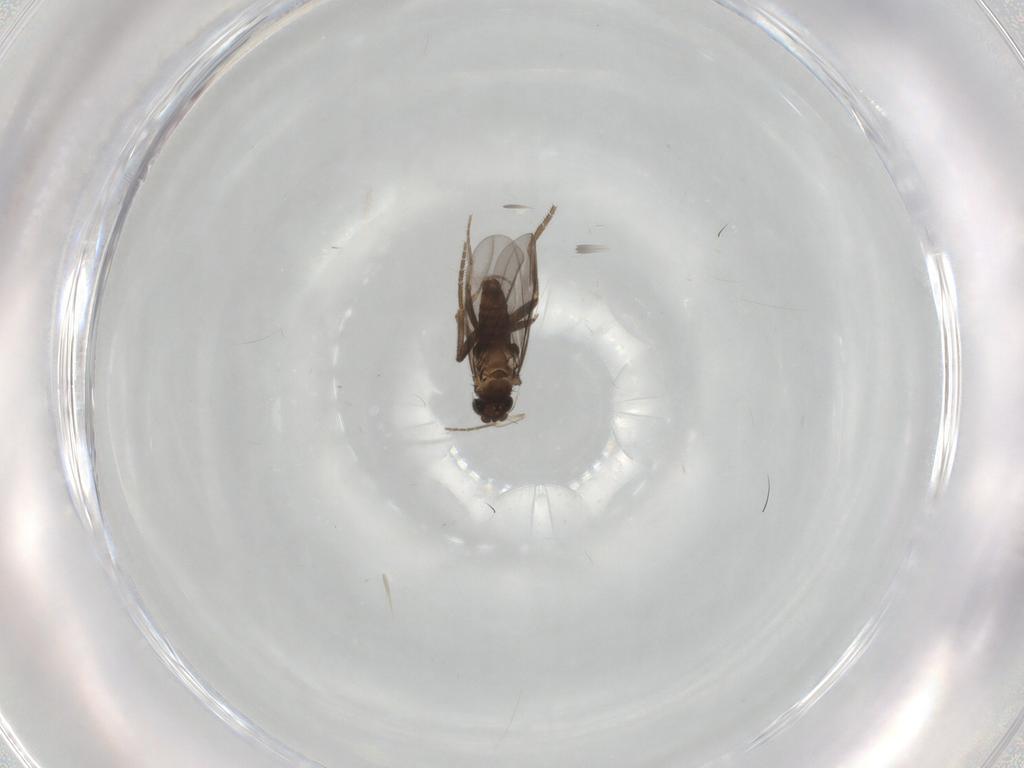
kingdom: Animalia
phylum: Arthropoda
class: Insecta
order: Diptera
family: Phoridae
